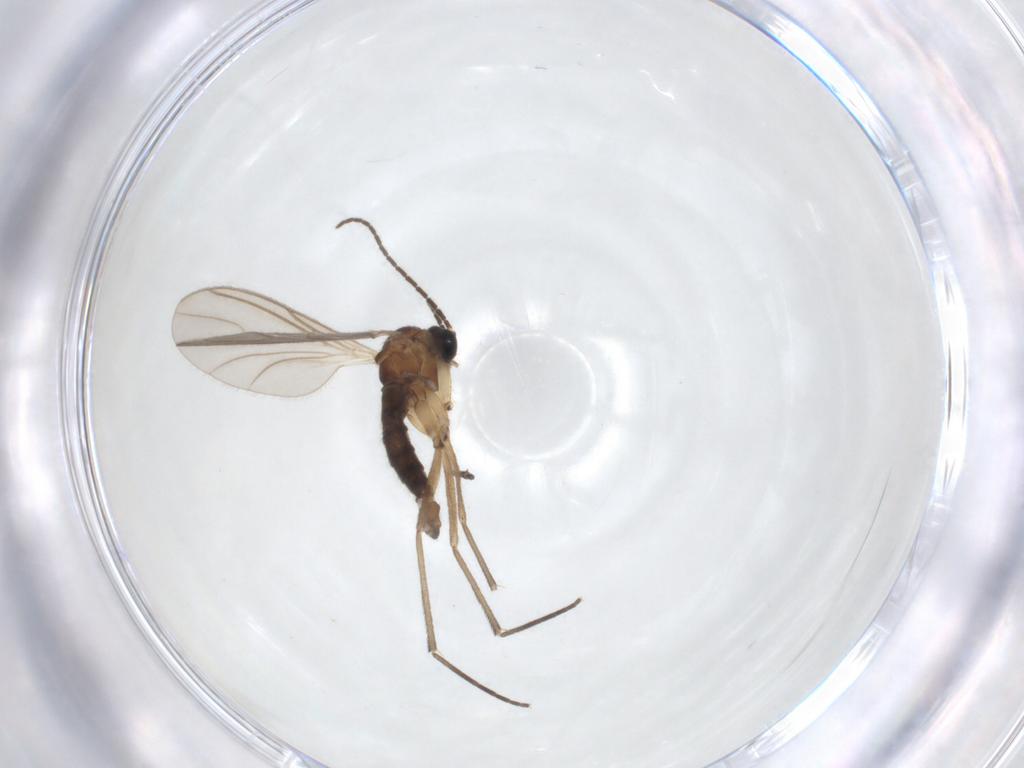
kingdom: Animalia
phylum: Arthropoda
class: Insecta
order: Diptera
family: Sciaridae
